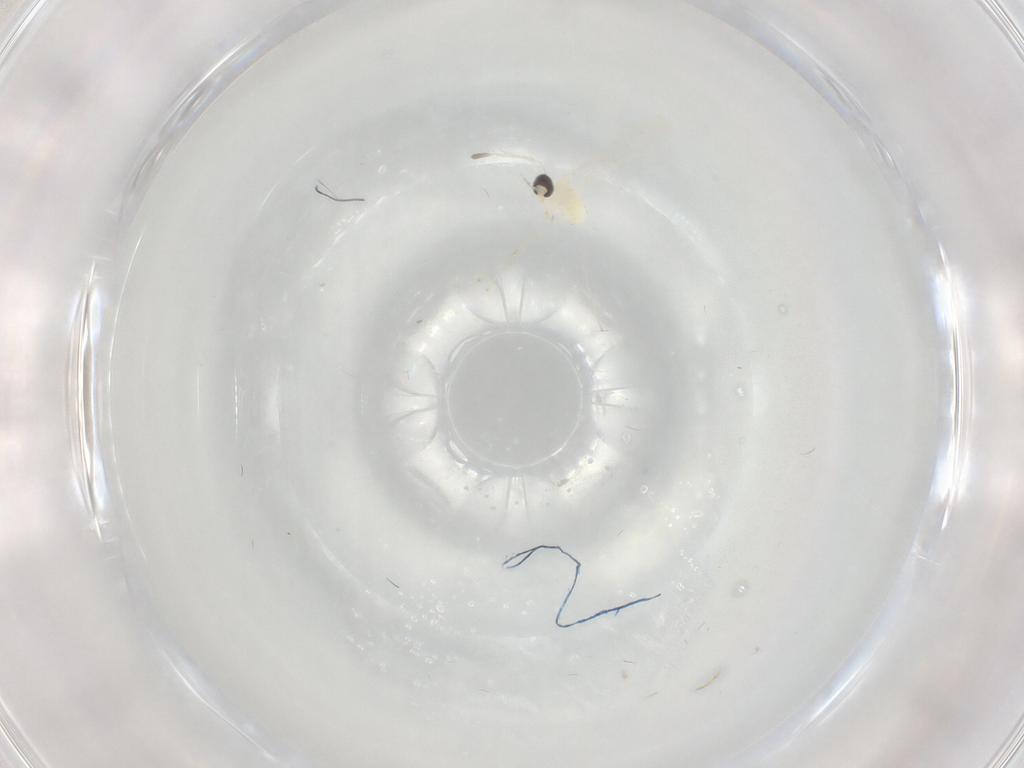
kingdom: Animalia
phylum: Arthropoda
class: Insecta
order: Diptera
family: Cecidomyiidae
